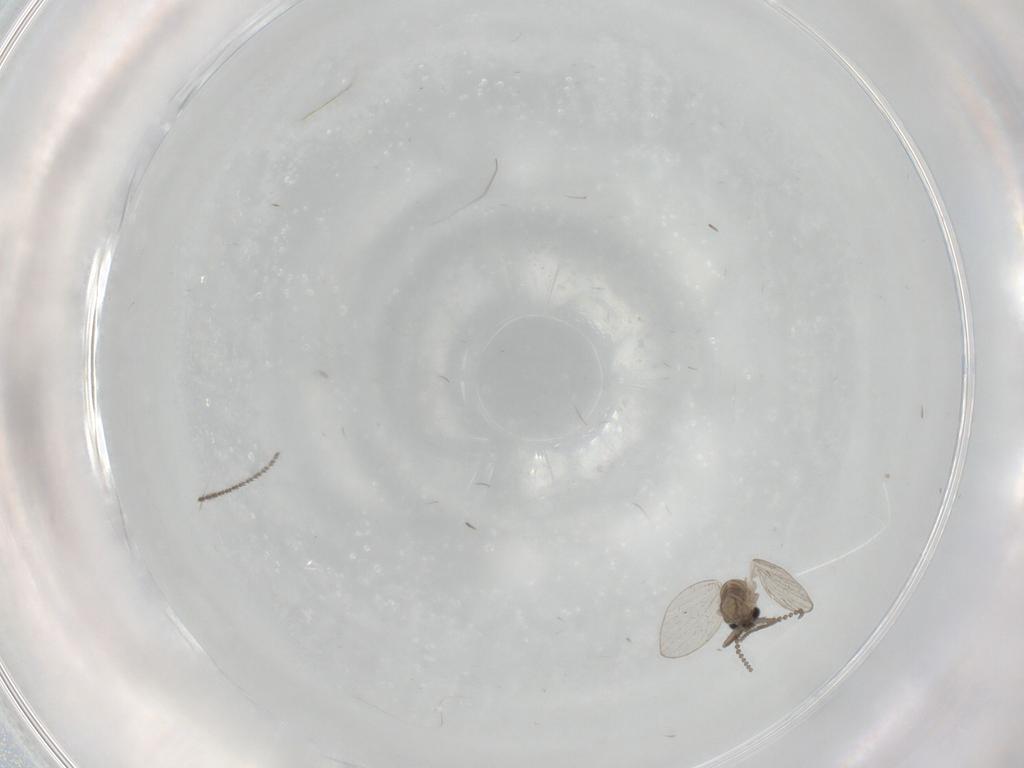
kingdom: Animalia
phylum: Arthropoda
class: Insecta
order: Diptera
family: Psychodidae
